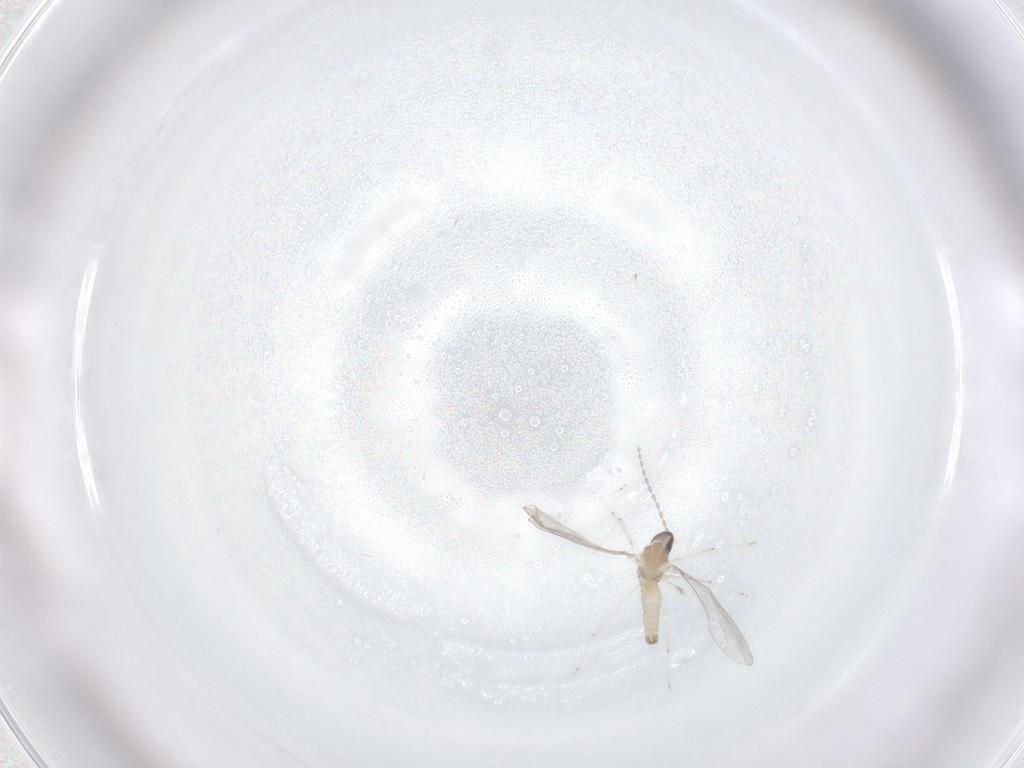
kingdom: Animalia
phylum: Arthropoda
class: Insecta
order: Diptera
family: Cecidomyiidae
